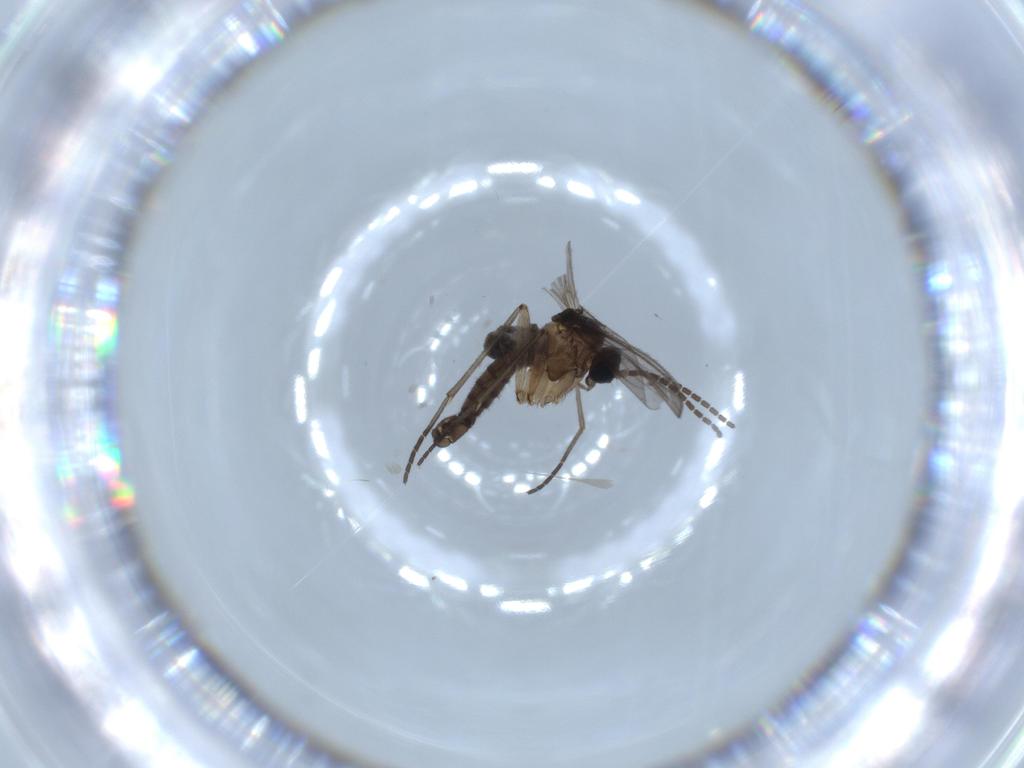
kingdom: Animalia
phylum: Arthropoda
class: Insecta
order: Diptera
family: Sciaridae
